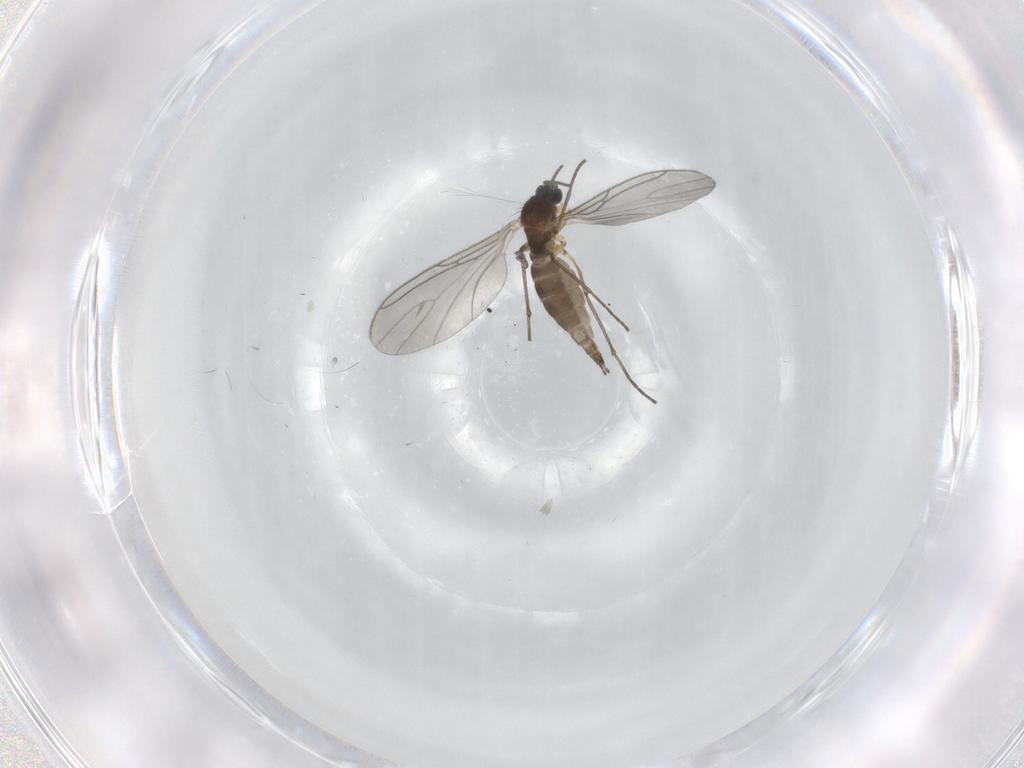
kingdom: Animalia
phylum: Arthropoda
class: Insecta
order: Diptera
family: Sciaridae
